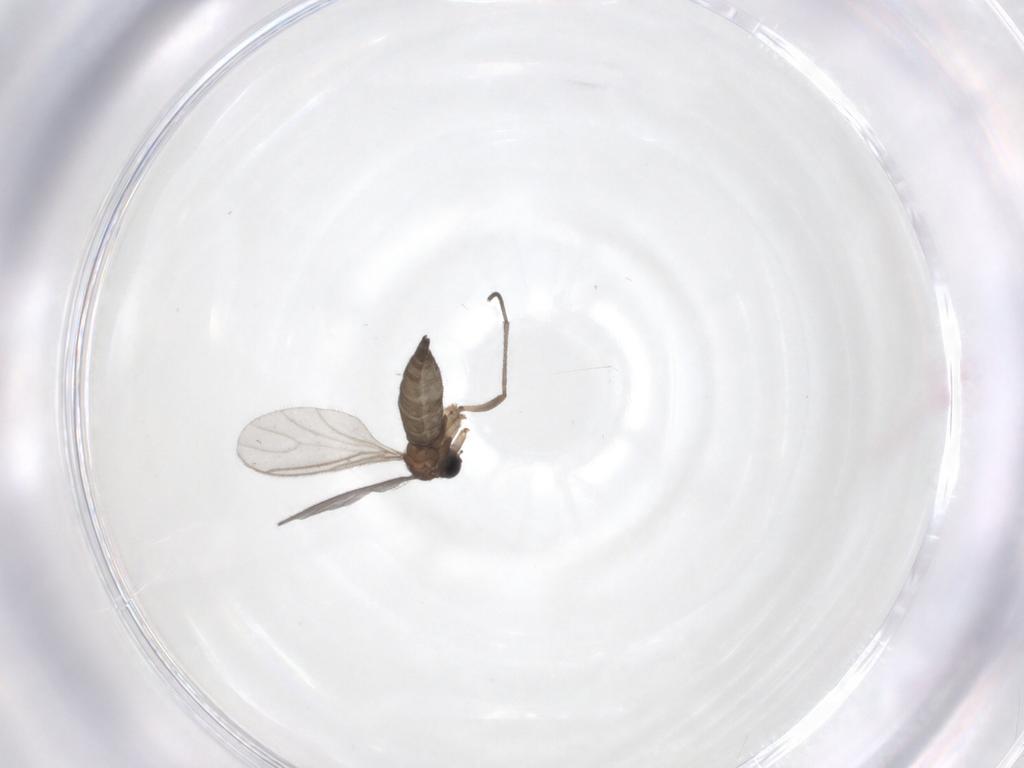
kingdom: Animalia
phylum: Arthropoda
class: Insecta
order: Diptera
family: Sciaridae
